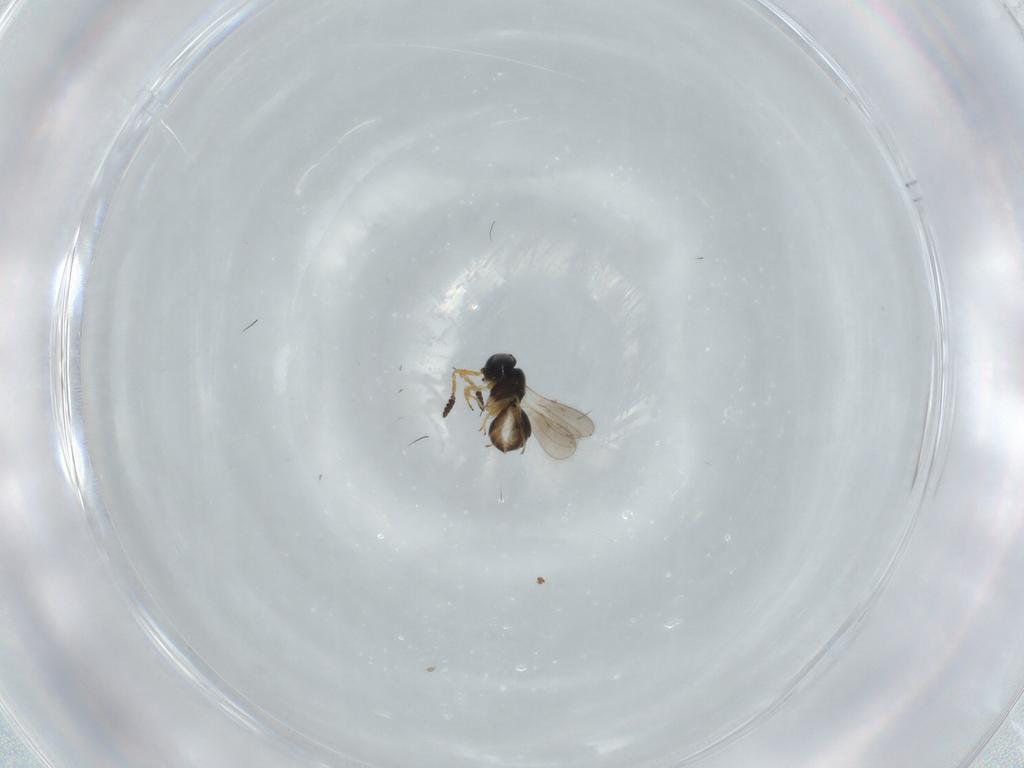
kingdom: Animalia
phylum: Arthropoda
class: Insecta
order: Hymenoptera
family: Scelionidae
